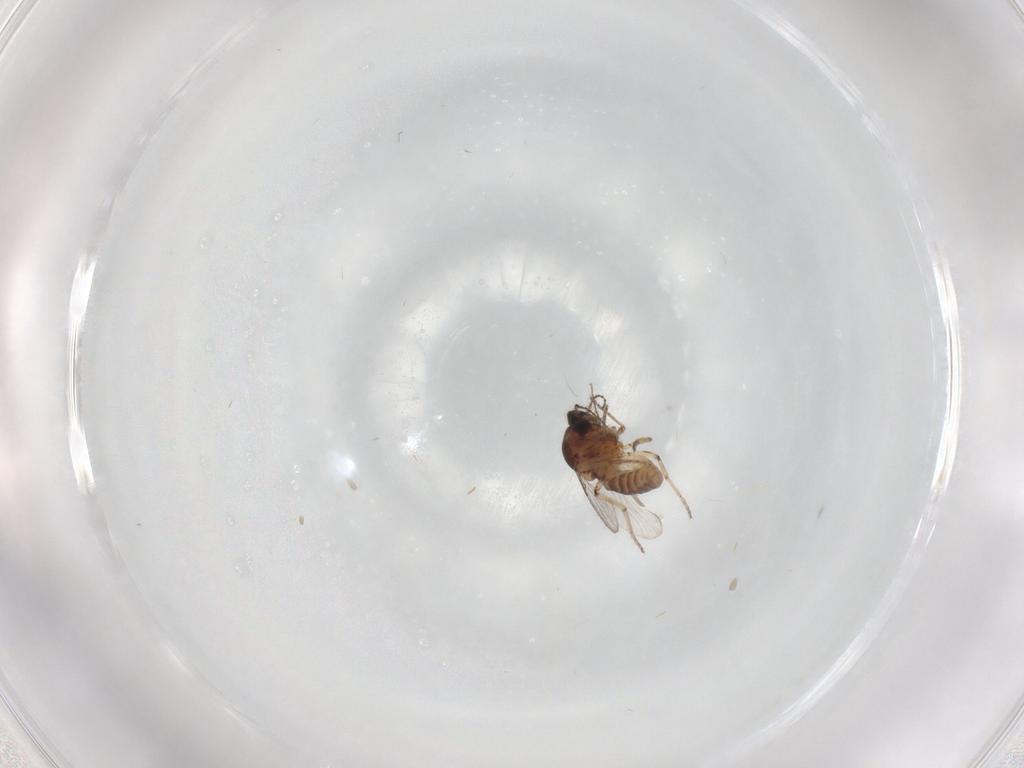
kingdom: Animalia
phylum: Arthropoda
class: Insecta
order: Diptera
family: Ceratopogonidae
